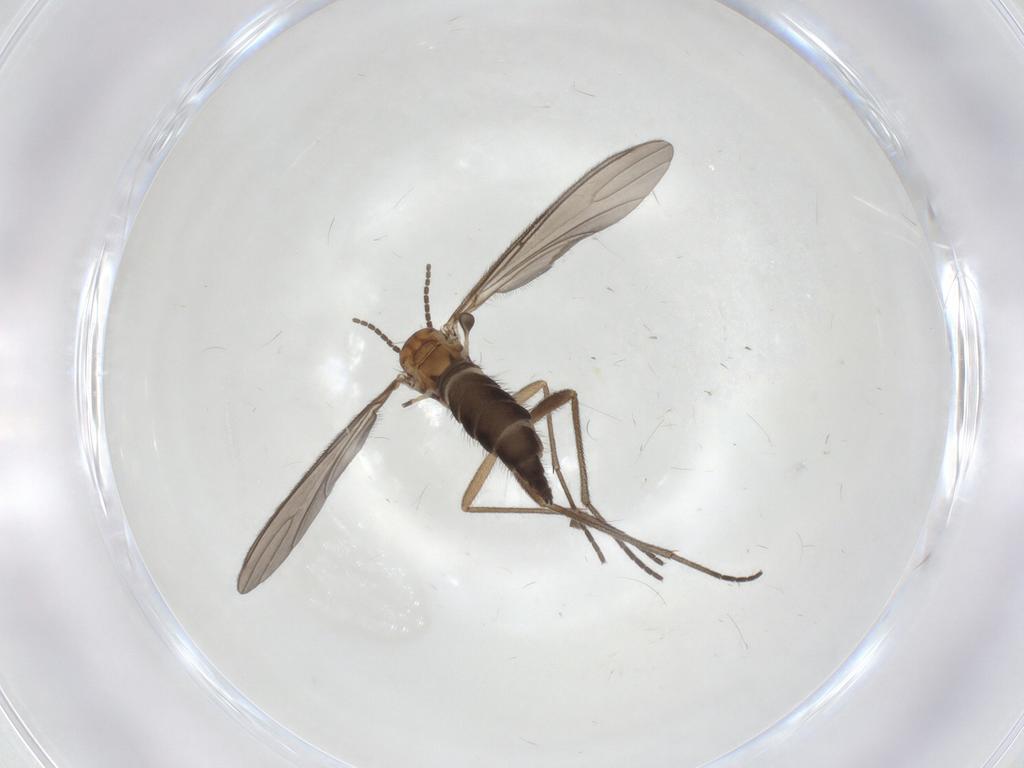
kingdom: Animalia
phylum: Arthropoda
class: Insecta
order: Diptera
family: Sciaridae
